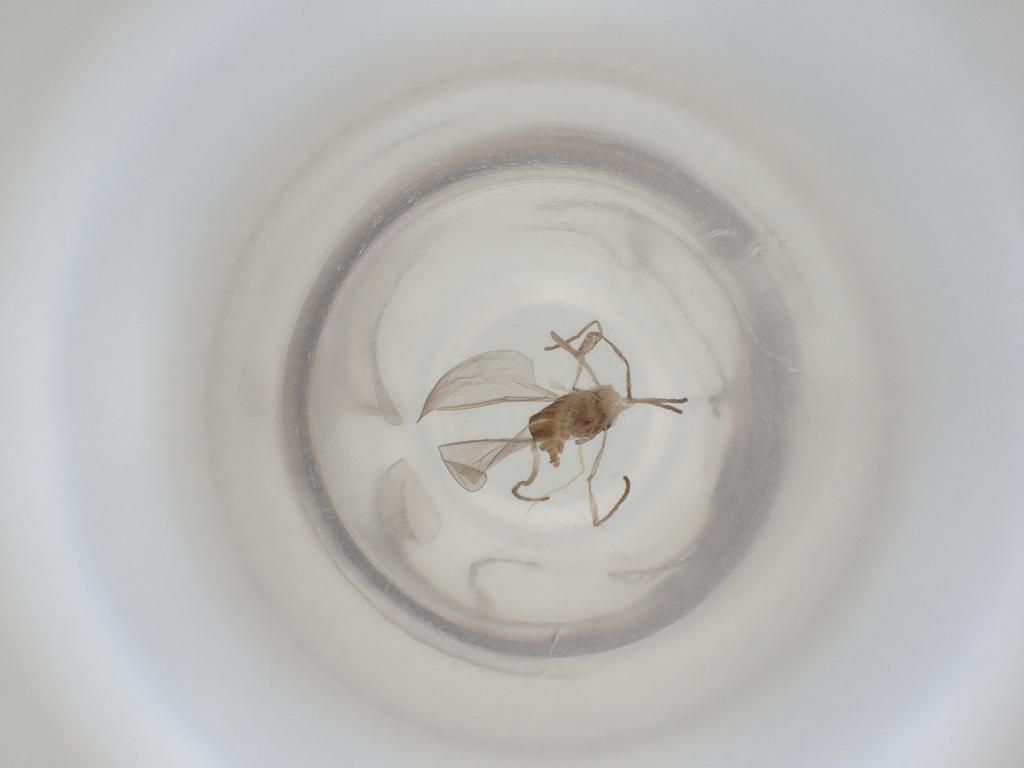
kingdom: Animalia
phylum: Arthropoda
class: Insecta
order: Diptera
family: Cecidomyiidae
